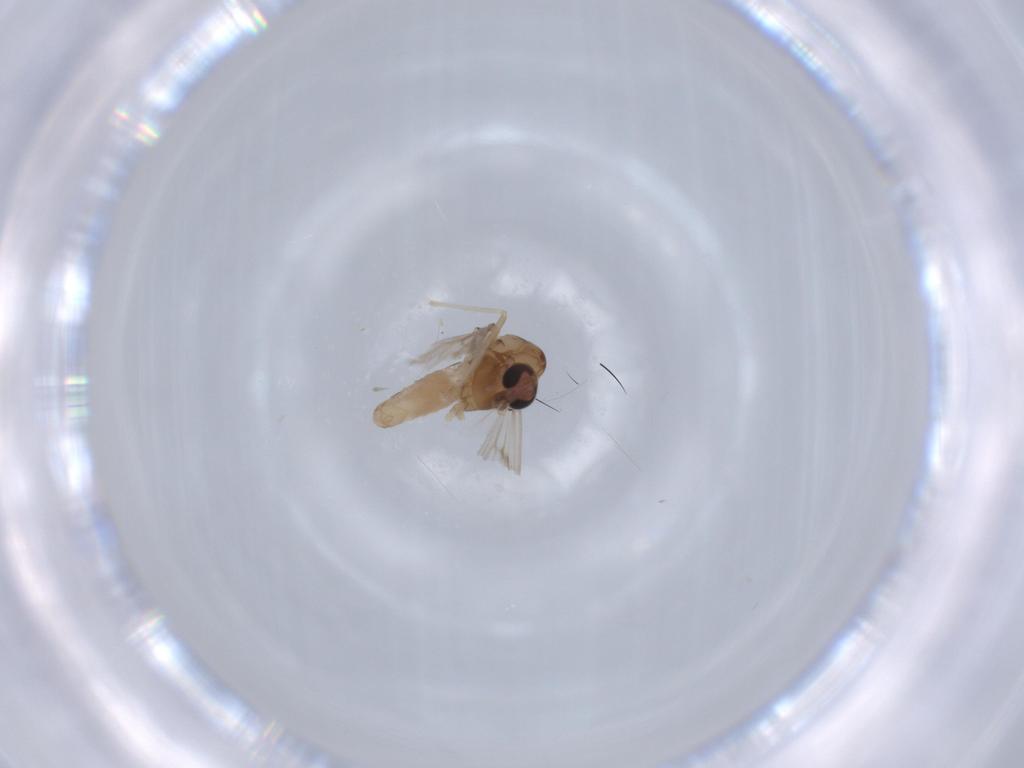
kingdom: Animalia
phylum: Arthropoda
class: Insecta
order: Diptera
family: Chironomidae
